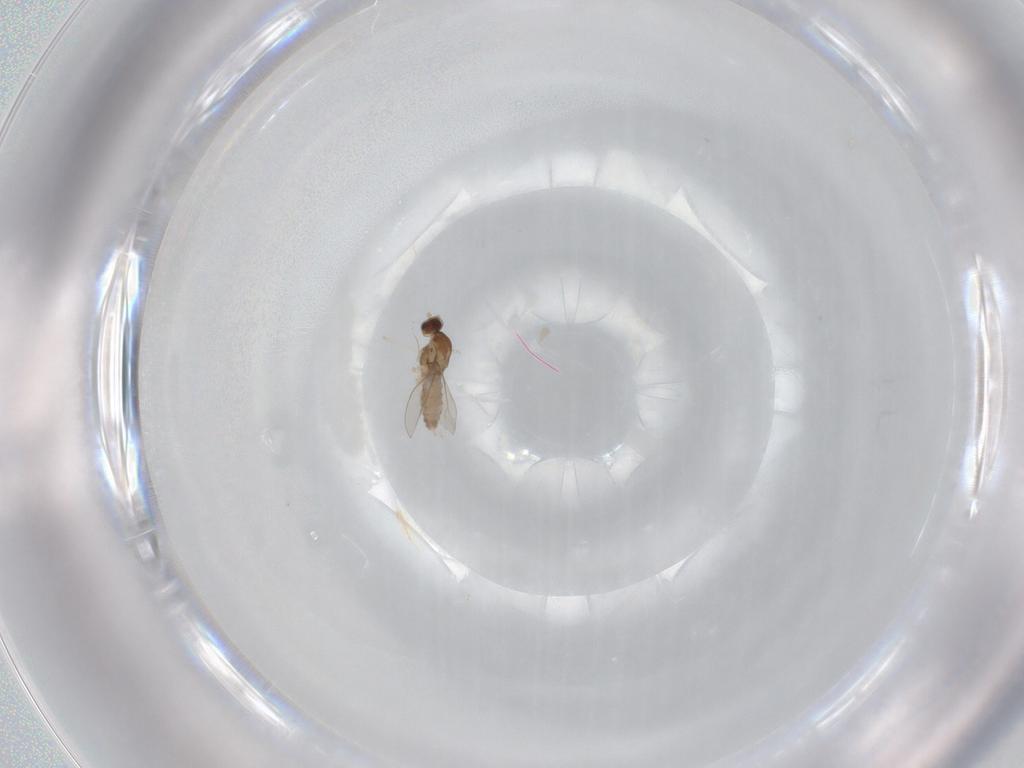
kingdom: Animalia
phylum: Arthropoda
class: Insecta
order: Diptera
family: Cecidomyiidae
